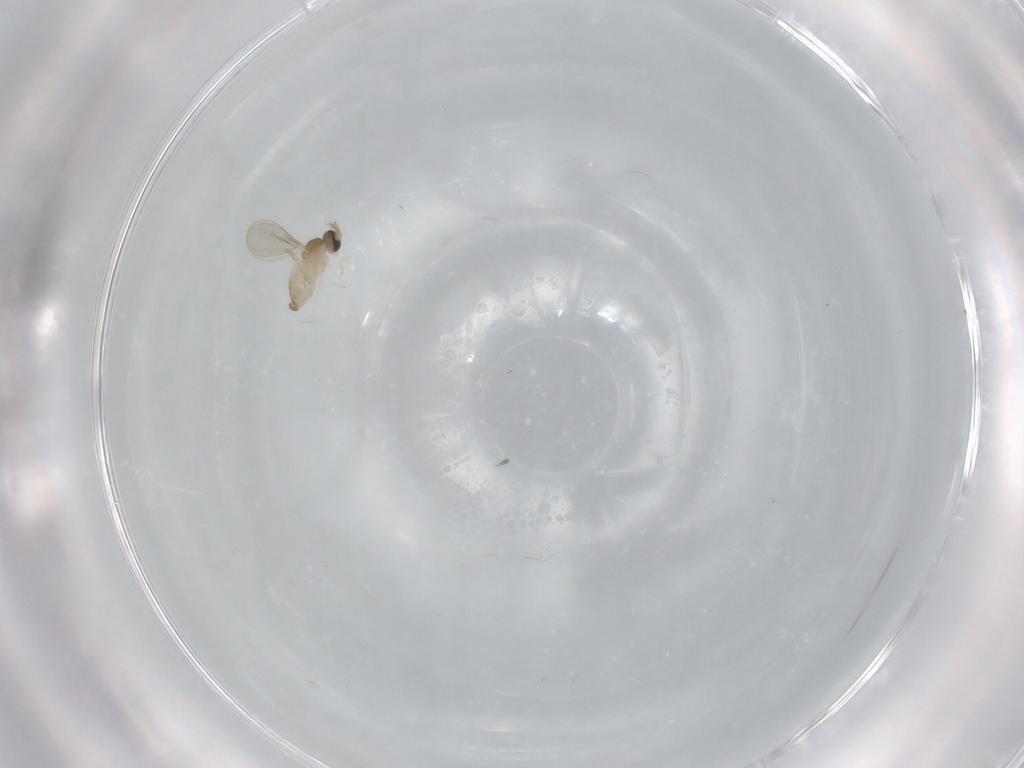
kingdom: Animalia
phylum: Arthropoda
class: Insecta
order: Diptera
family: Cecidomyiidae
